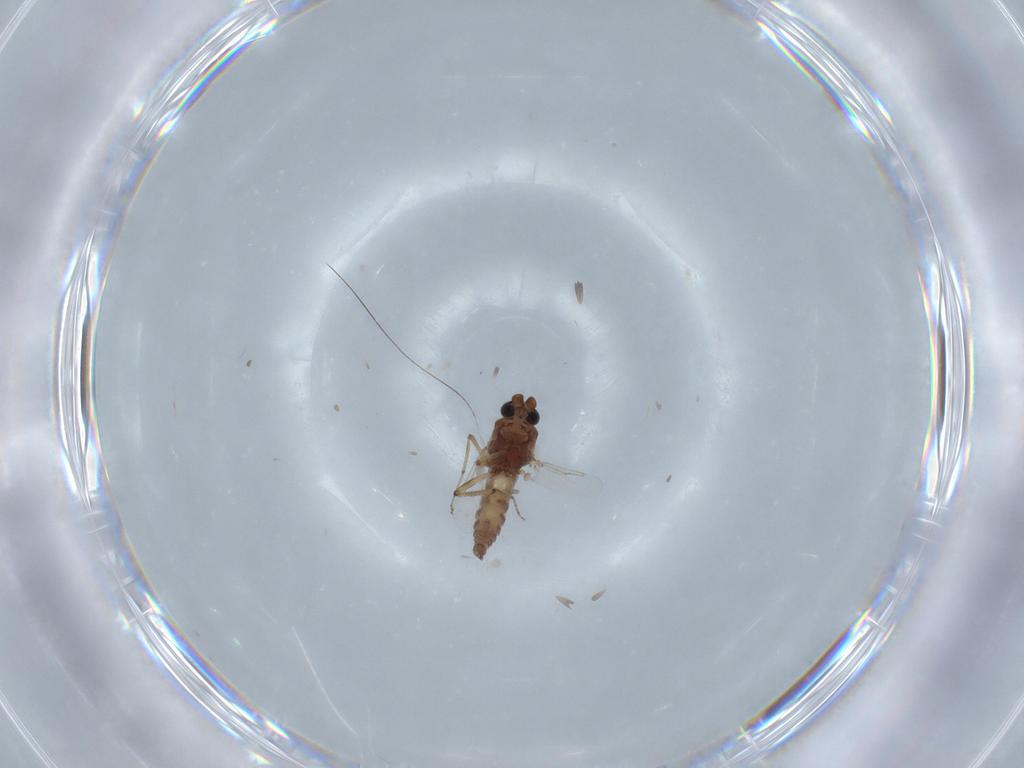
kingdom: Animalia
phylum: Arthropoda
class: Insecta
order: Diptera
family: Ceratopogonidae
